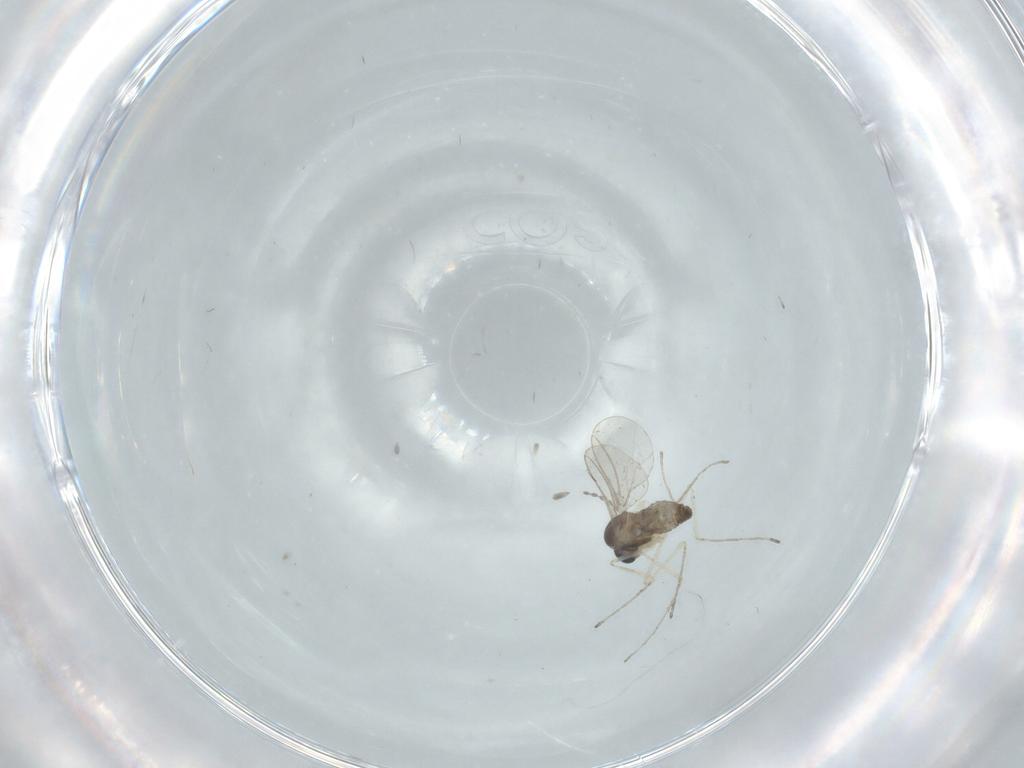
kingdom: Animalia
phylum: Arthropoda
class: Insecta
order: Diptera
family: Cecidomyiidae
